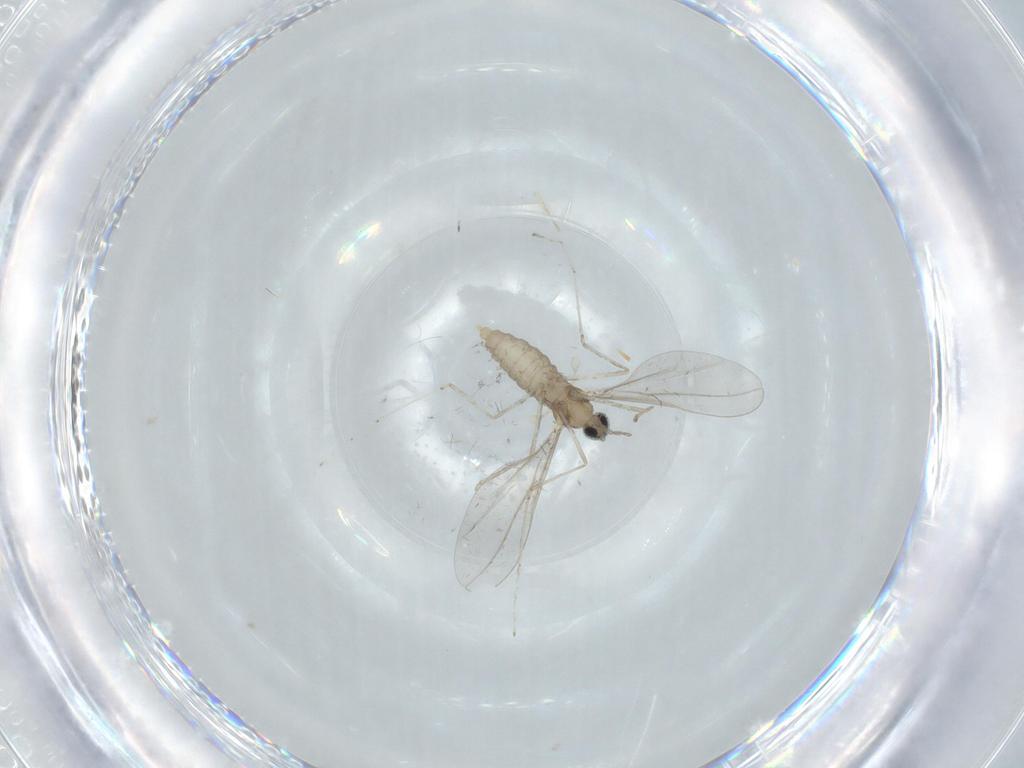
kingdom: Animalia
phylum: Arthropoda
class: Insecta
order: Diptera
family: Cecidomyiidae
